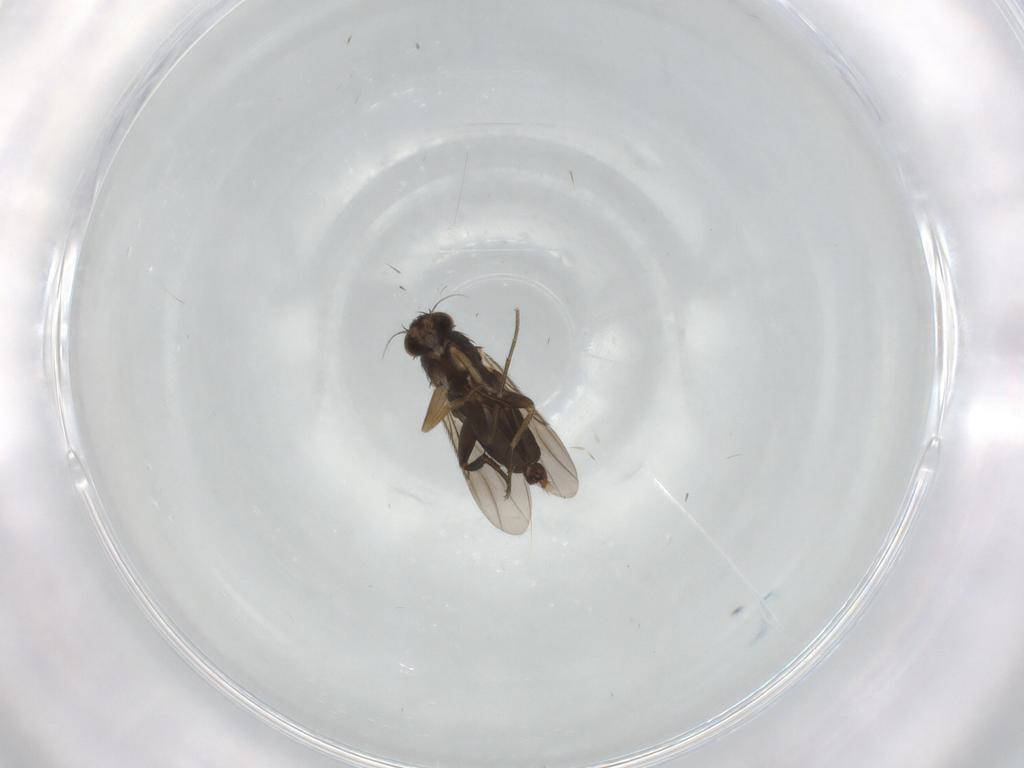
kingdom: Animalia
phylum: Arthropoda
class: Insecta
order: Diptera
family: Phoridae
